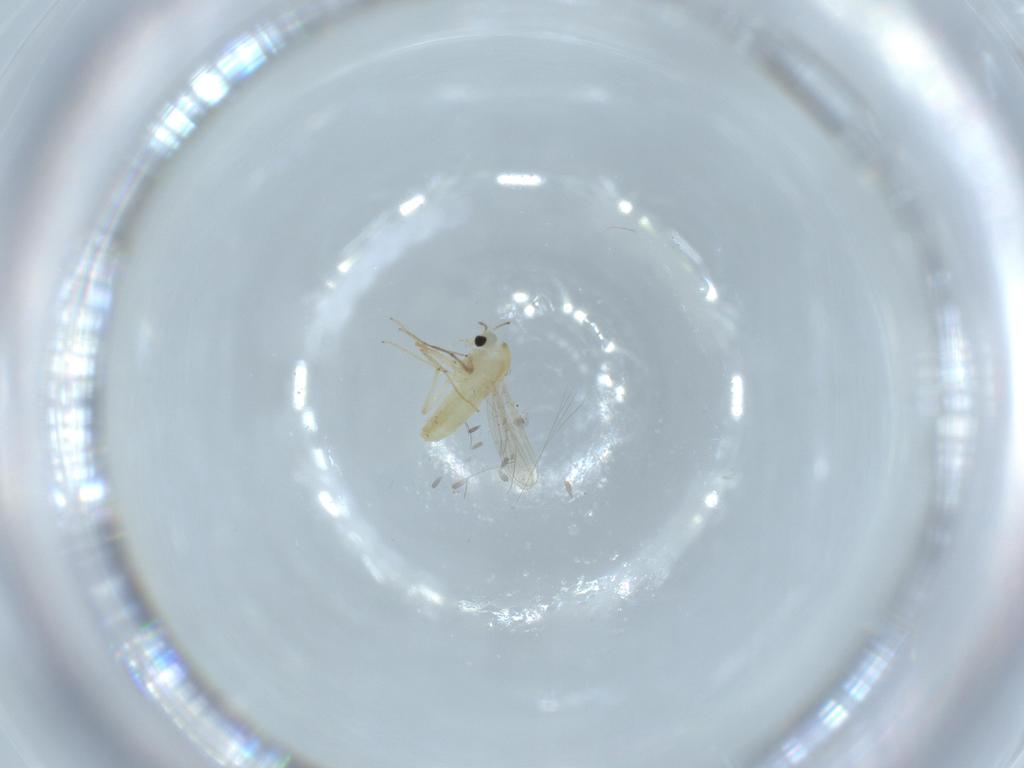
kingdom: Animalia
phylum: Arthropoda
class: Insecta
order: Diptera
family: Chironomidae
